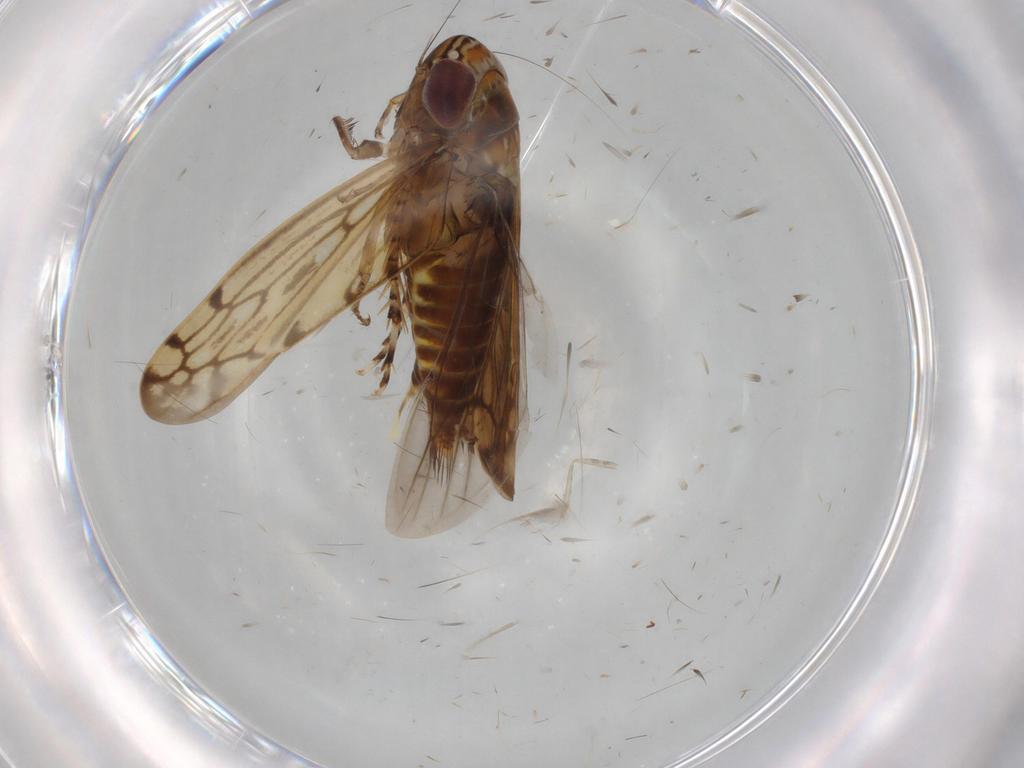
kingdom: Animalia
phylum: Arthropoda
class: Insecta
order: Hemiptera
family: Cicadellidae
